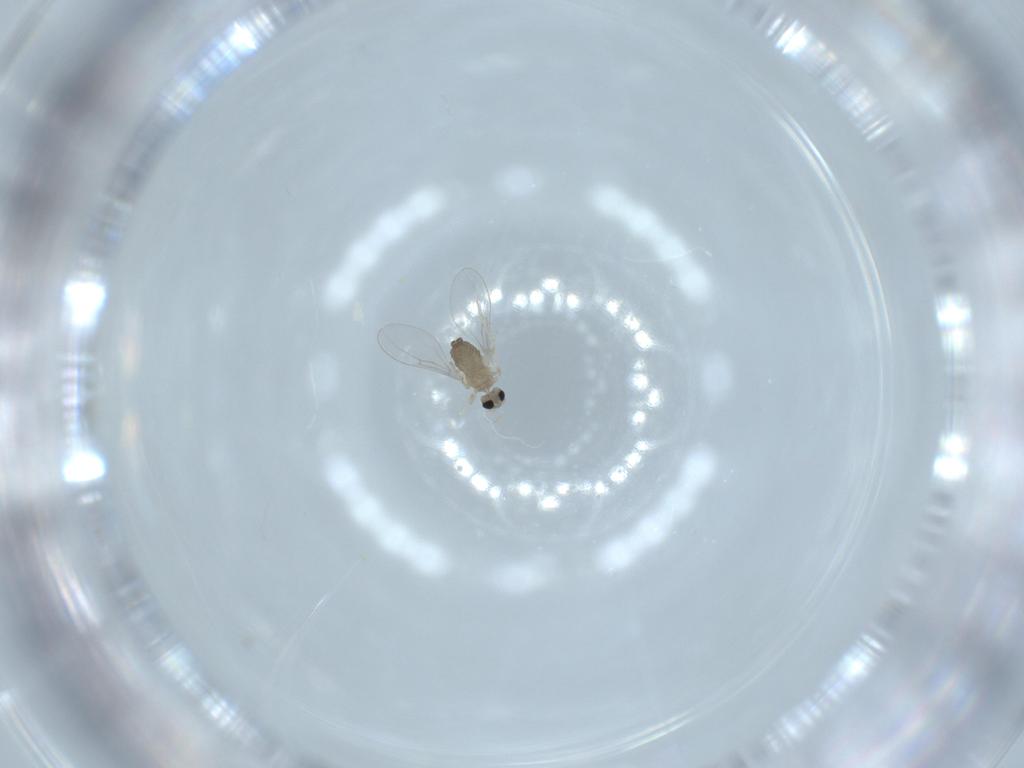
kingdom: Animalia
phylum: Arthropoda
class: Insecta
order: Diptera
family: Cecidomyiidae
